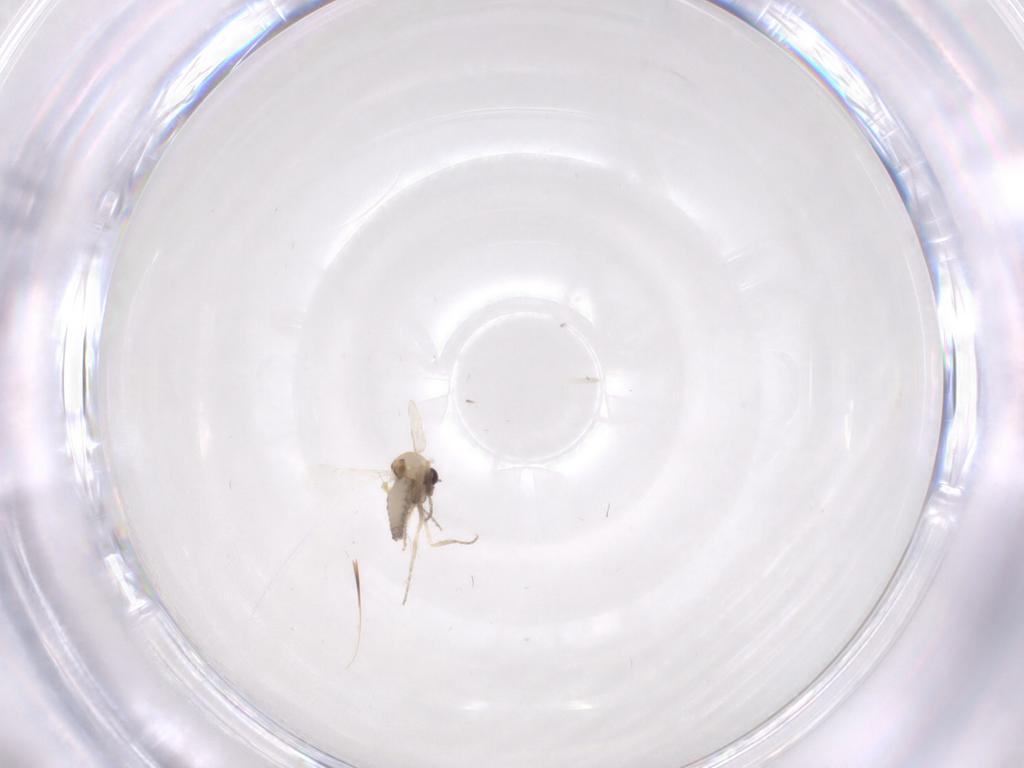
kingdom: Animalia
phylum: Arthropoda
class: Insecta
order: Diptera
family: Ceratopogonidae
